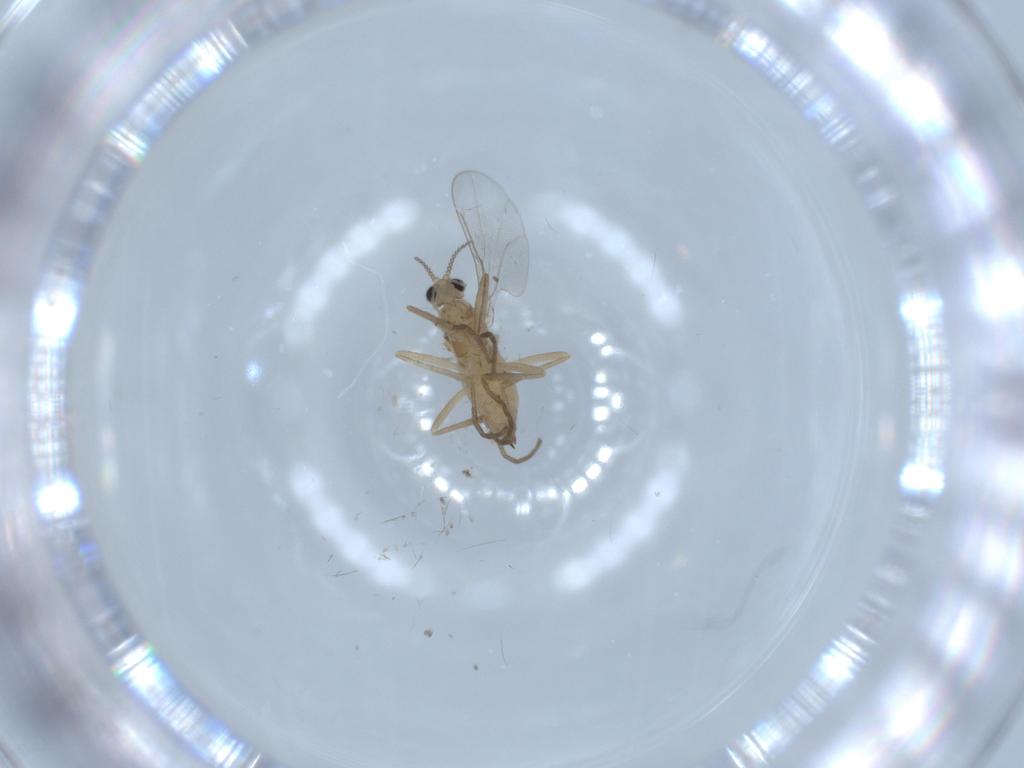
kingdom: Animalia
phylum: Arthropoda
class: Insecta
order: Diptera
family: Cecidomyiidae
